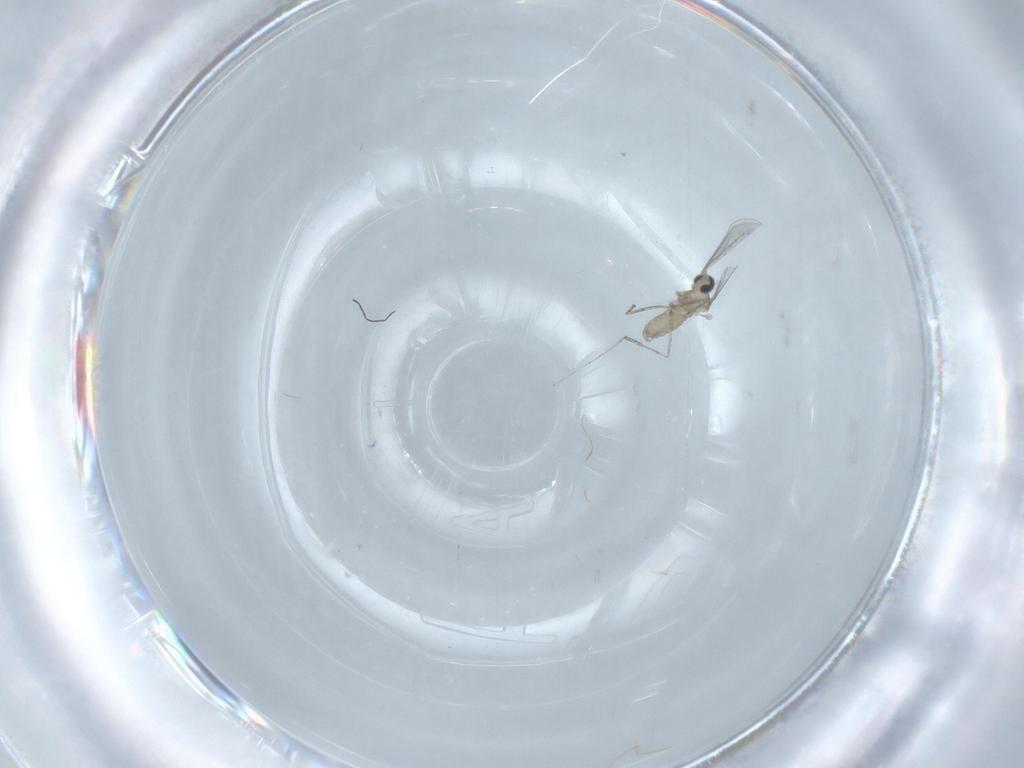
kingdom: Animalia
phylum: Arthropoda
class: Insecta
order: Diptera
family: Cecidomyiidae
